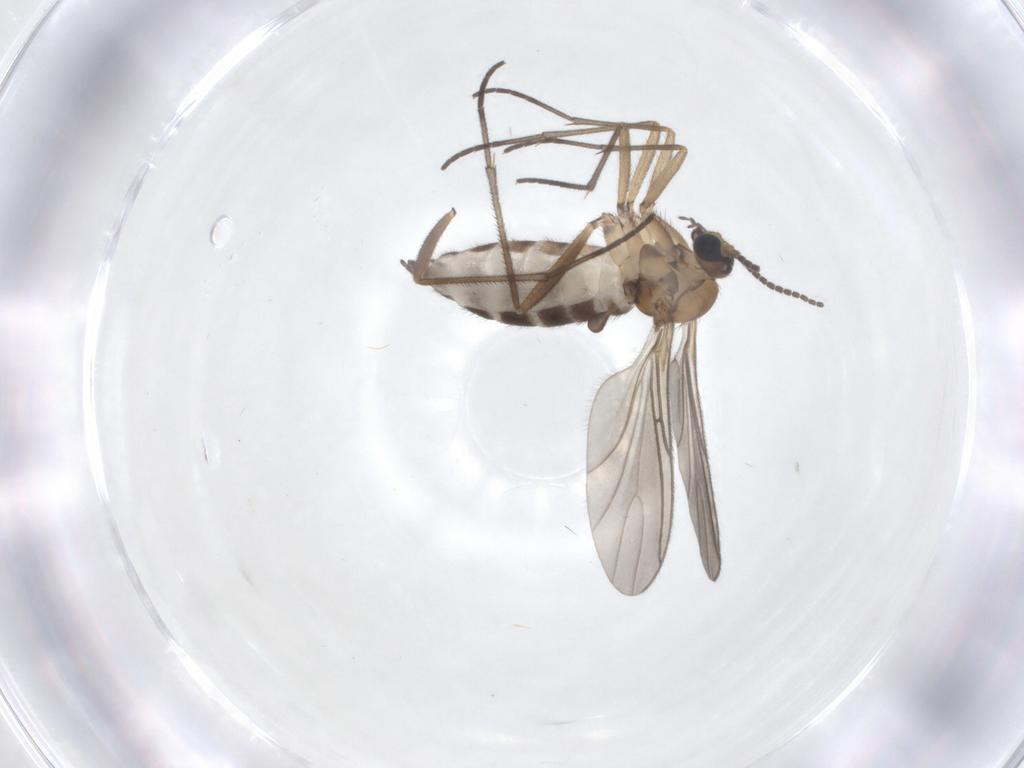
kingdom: Animalia
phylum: Arthropoda
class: Insecta
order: Diptera
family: Sciaridae
